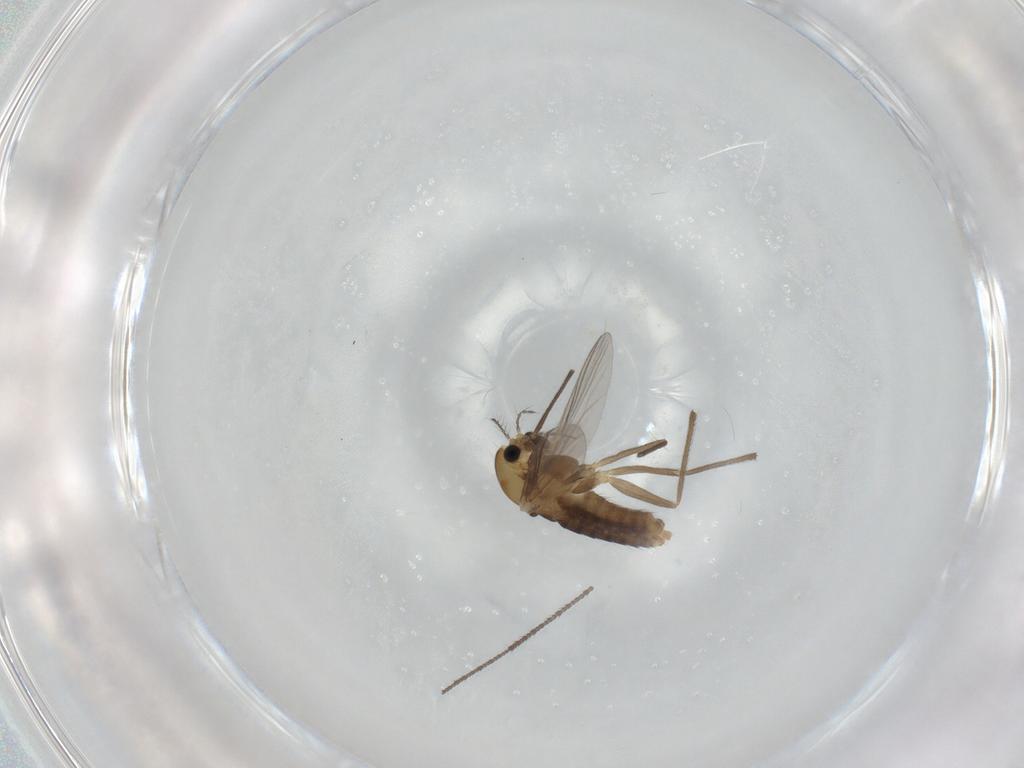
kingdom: Animalia
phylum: Arthropoda
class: Insecta
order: Diptera
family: Chironomidae
